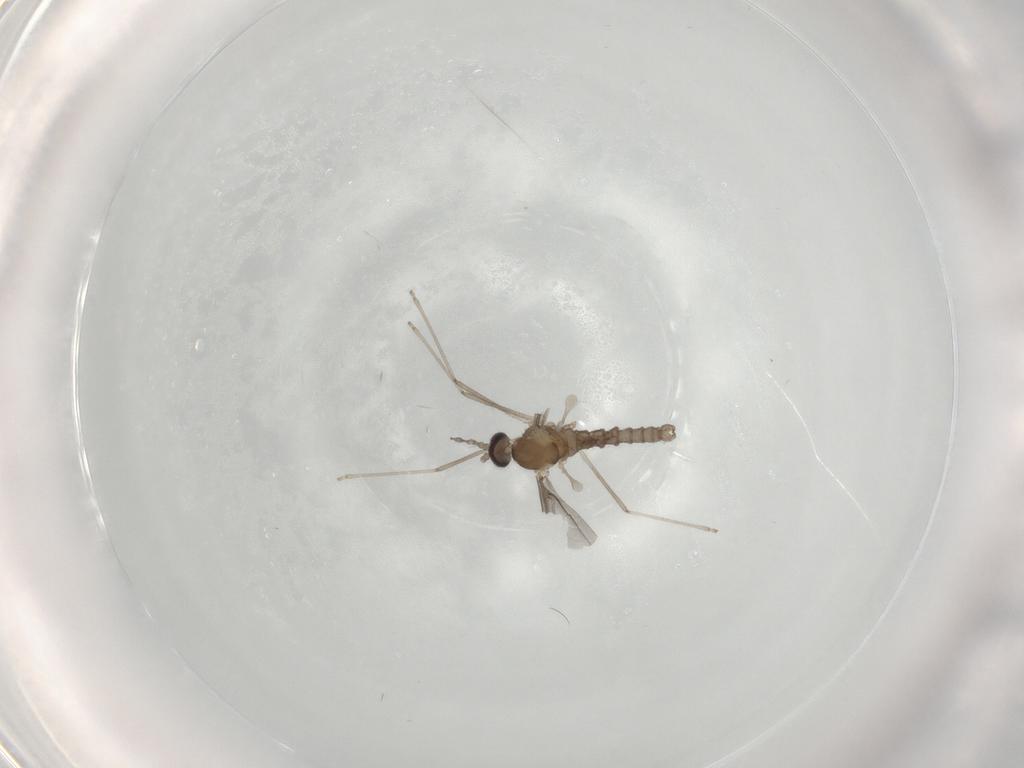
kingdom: Animalia
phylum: Arthropoda
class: Insecta
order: Diptera
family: Cecidomyiidae
